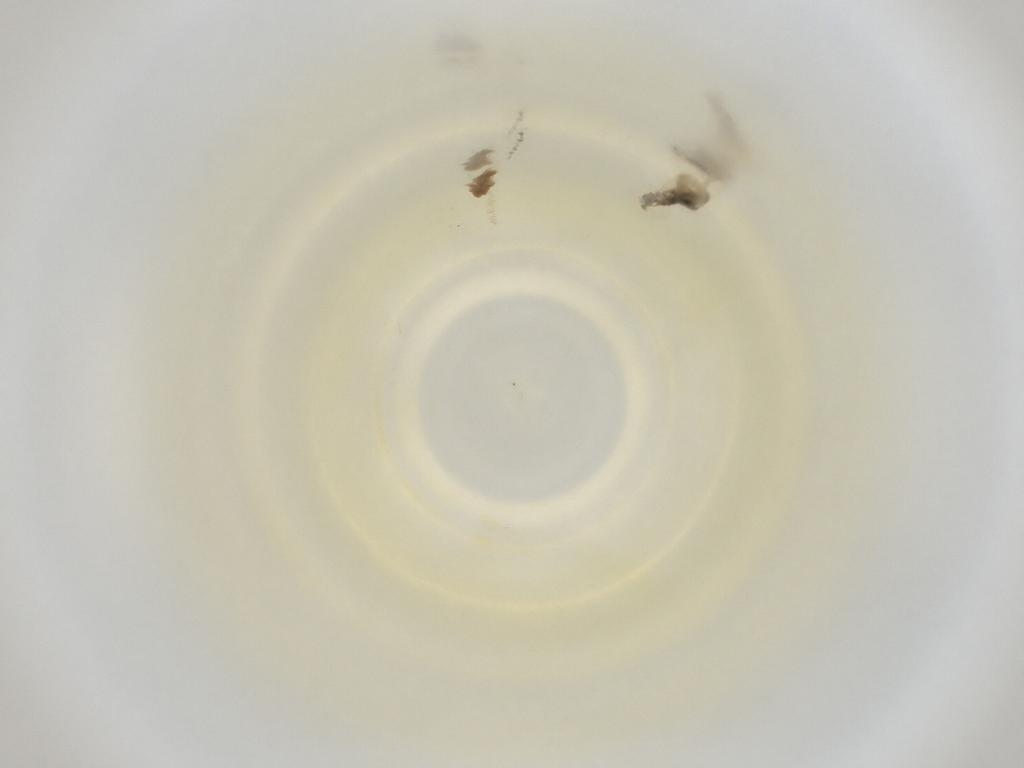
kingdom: Animalia
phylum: Arthropoda
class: Insecta
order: Diptera
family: Cecidomyiidae
